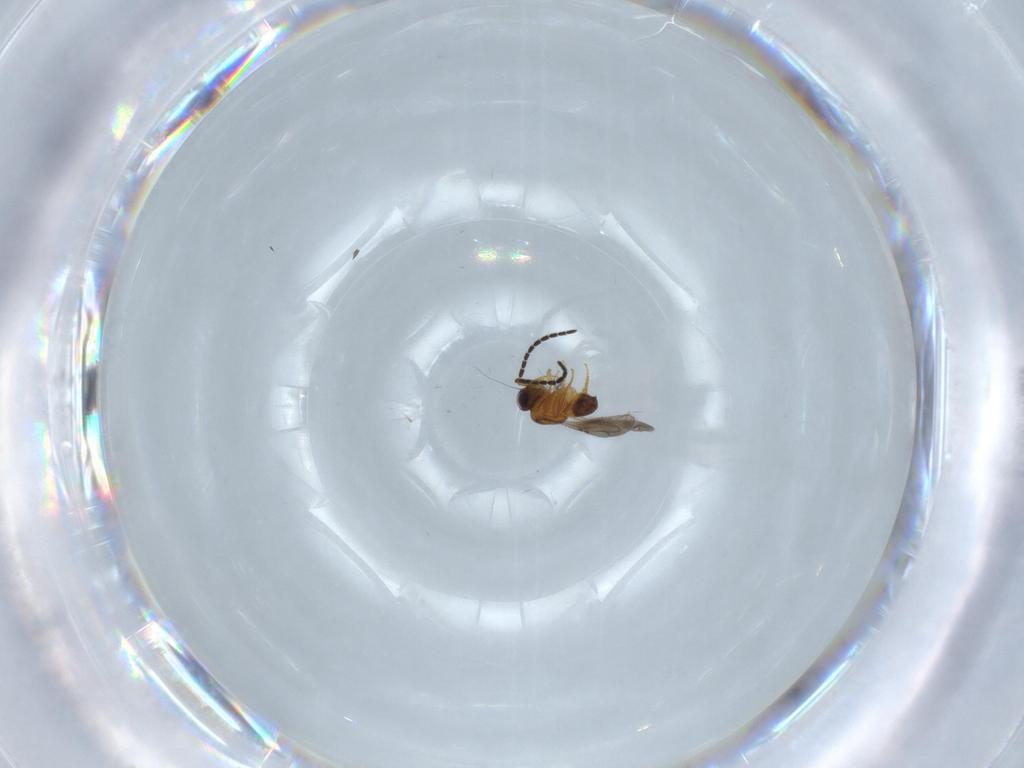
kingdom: Animalia
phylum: Arthropoda
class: Insecta
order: Hymenoptera
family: Ceraphronidae
